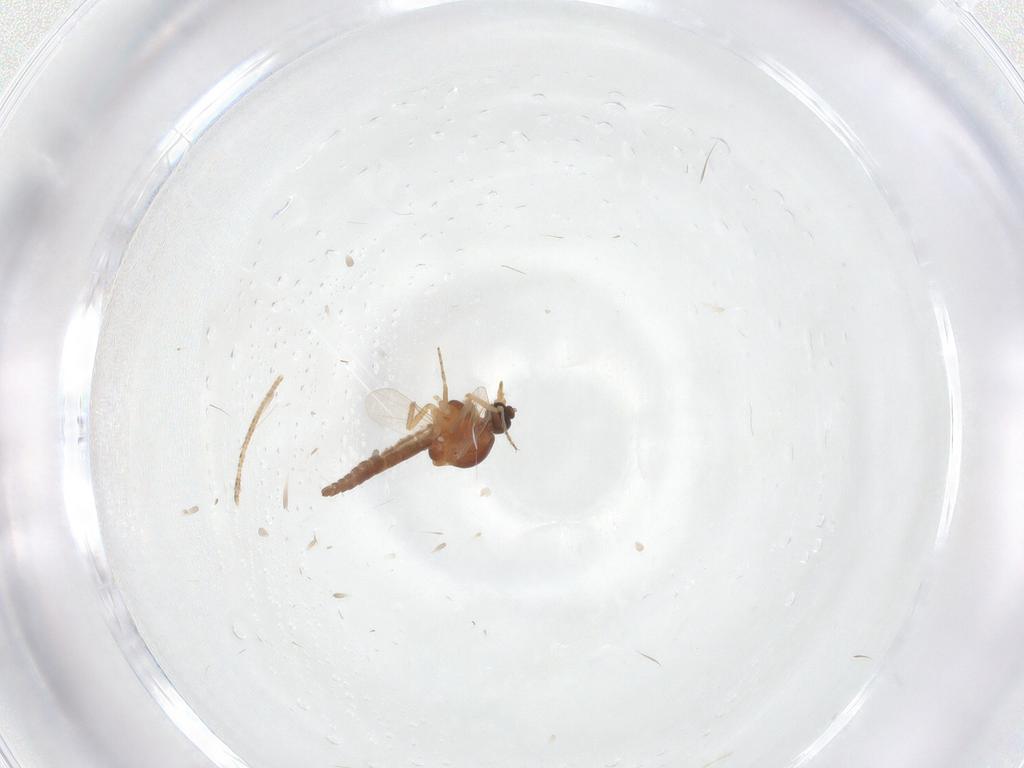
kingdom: Animalia
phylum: Arthropoda
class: Insecta
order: Diptera
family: Ceratopogonidae
